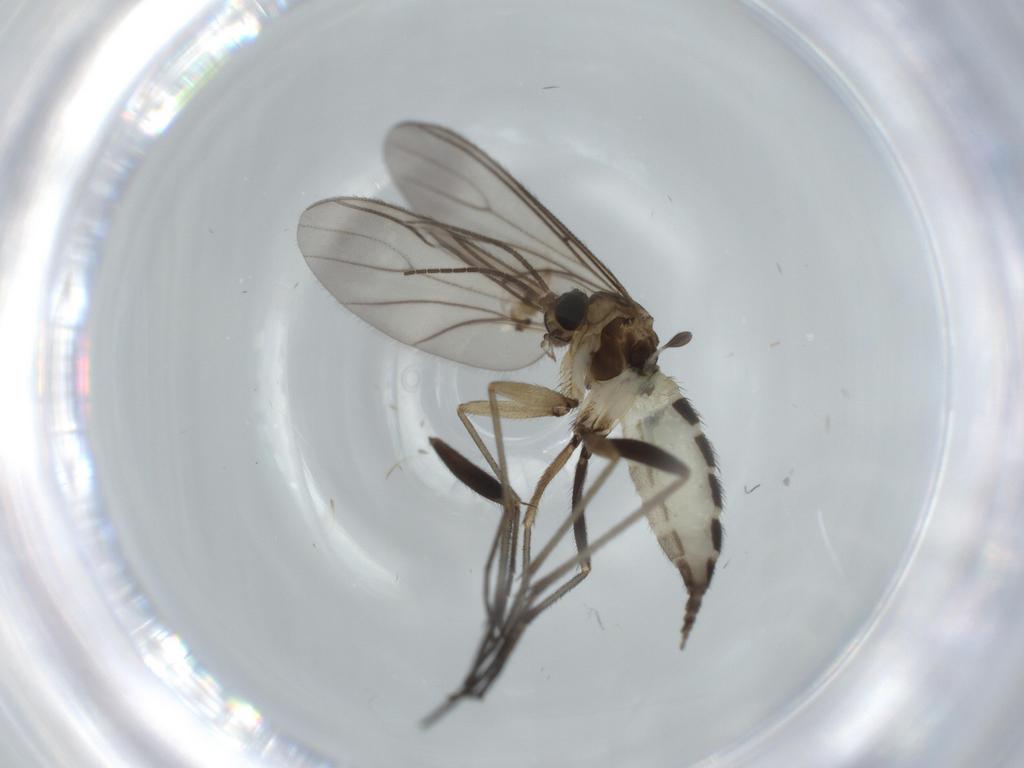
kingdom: Animalia
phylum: Arthropoda
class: Insecta
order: Diptera
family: Sciaridae
